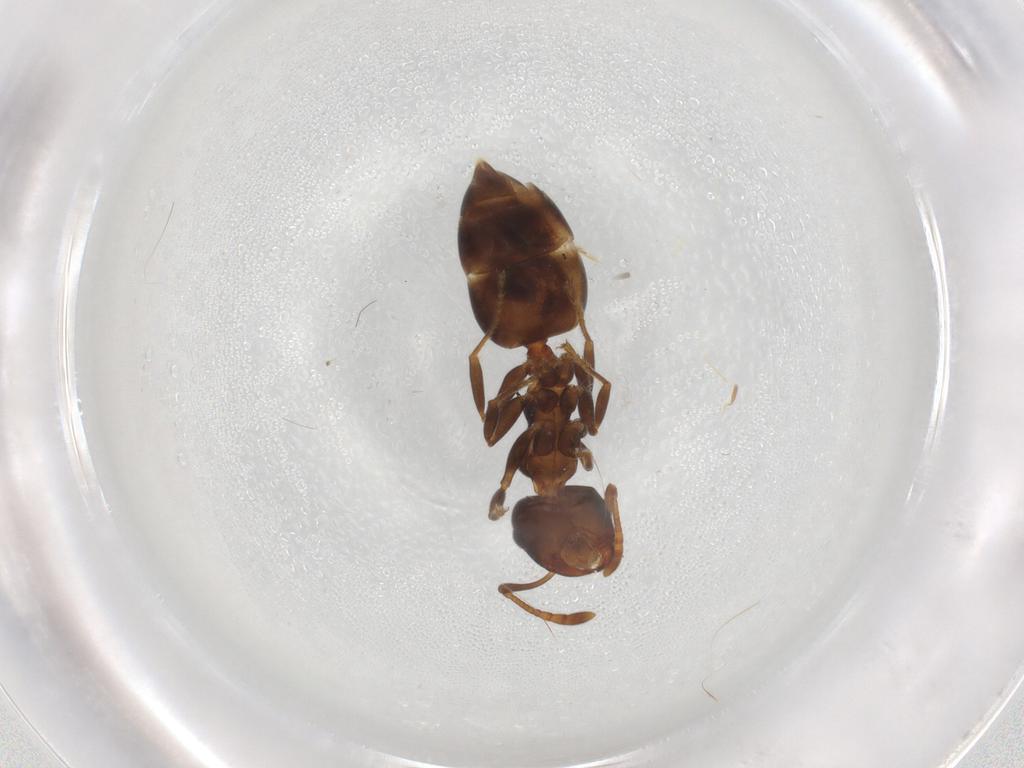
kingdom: Animalia
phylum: Arthropoda
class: Insecta
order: Hymenoptera
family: Formicidae
